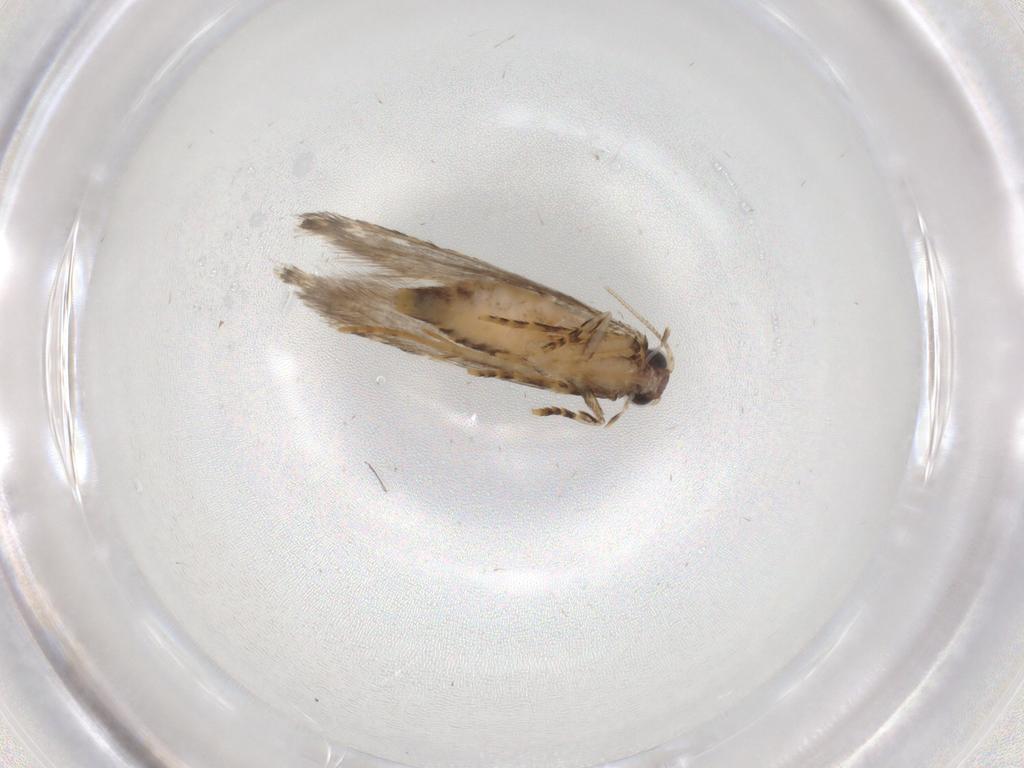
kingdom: Animalia
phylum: Arthropoda
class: Insecta
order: Lepidoptera
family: Tineidae
